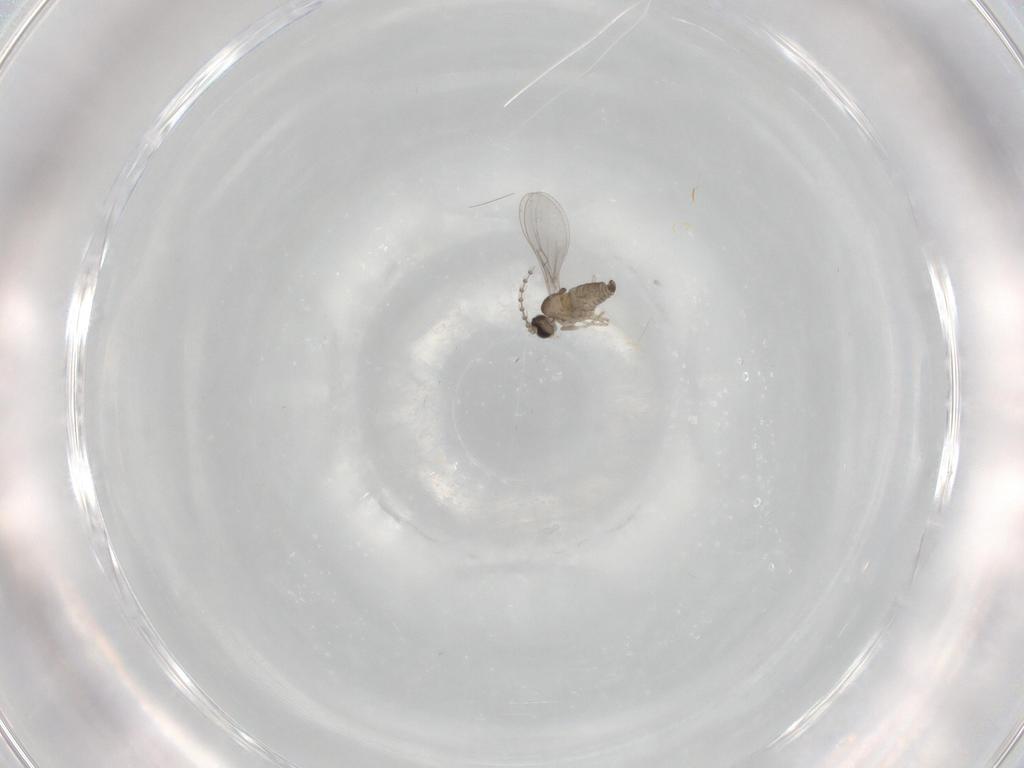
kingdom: Animalia
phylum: Arthropoda
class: Insecta
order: Diptera
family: Cecidomyiidae
